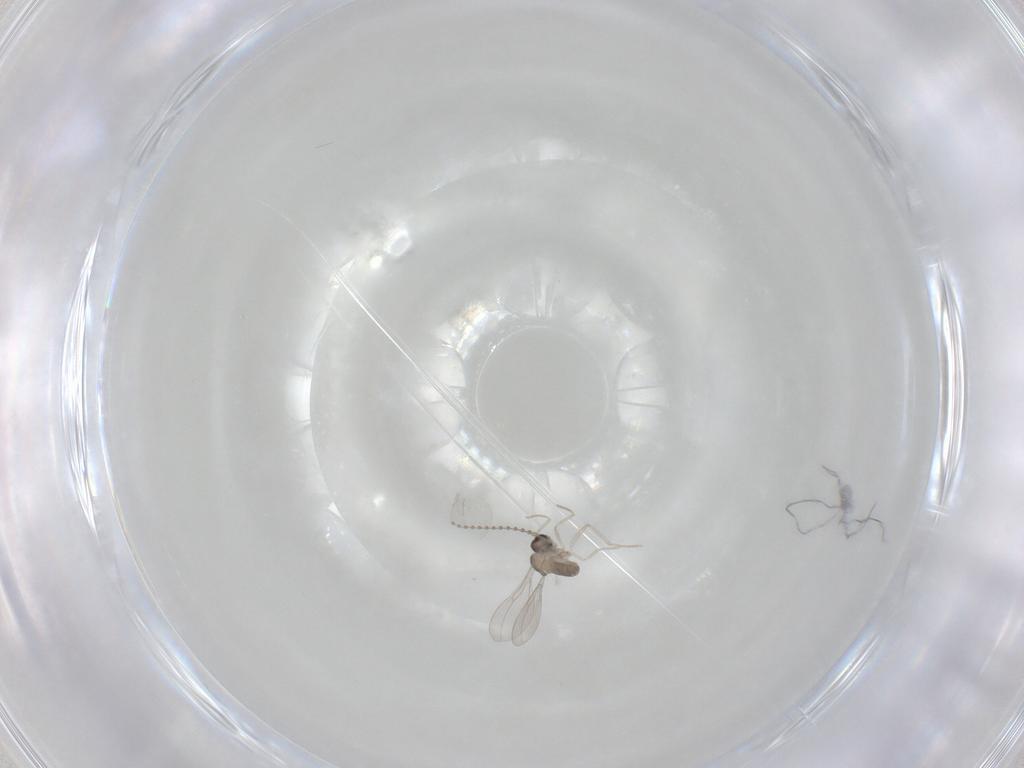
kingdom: Animalia
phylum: Arthropoda
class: Insecta
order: Diptera
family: Cecidomyiidae
